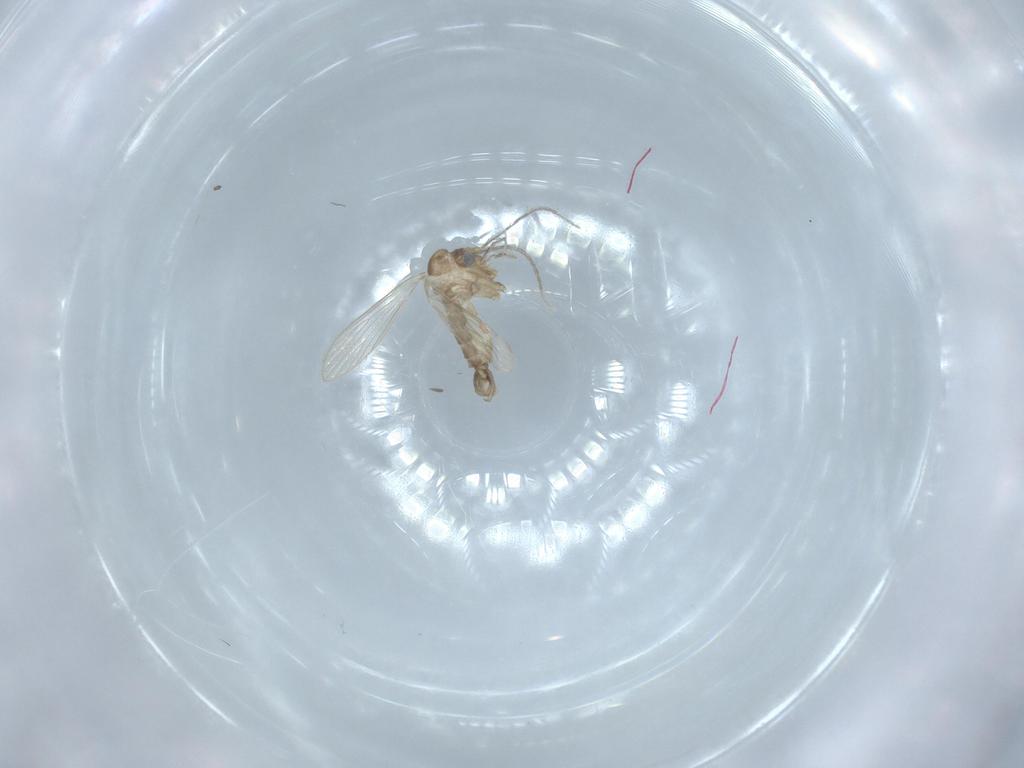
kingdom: Animalia
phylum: Arthropoda
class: Insecta
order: Diptera
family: Psychodidae
